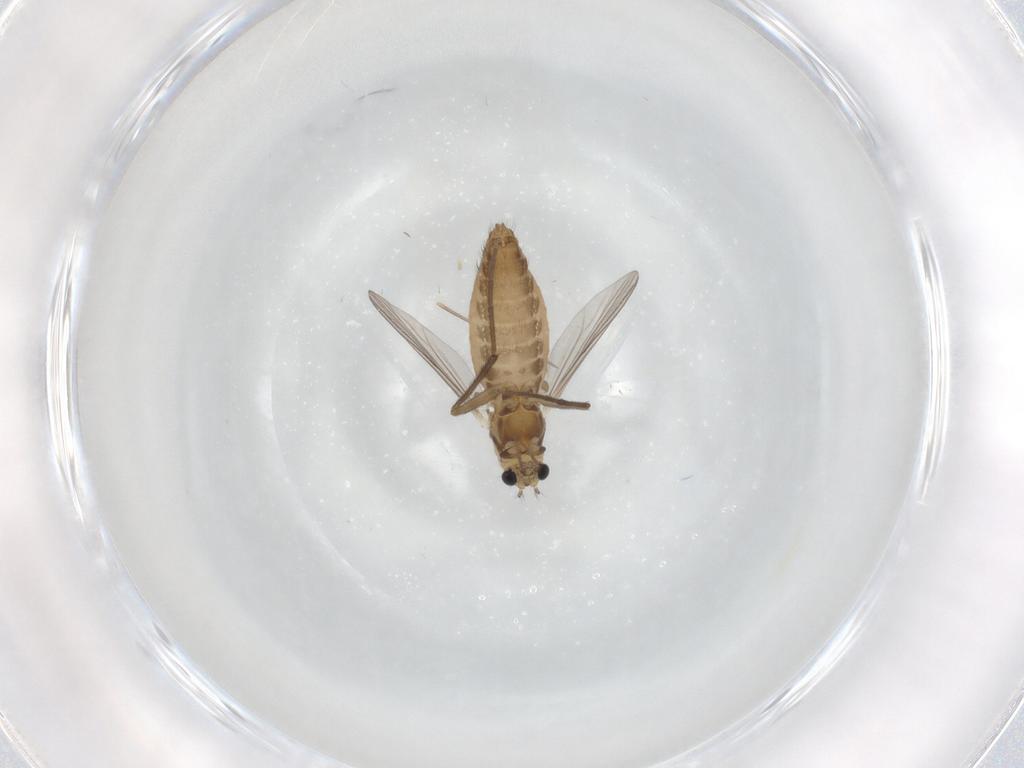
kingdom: Animalia
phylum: Arthropoda
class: Insecta
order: Diptera
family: Chironomidae
